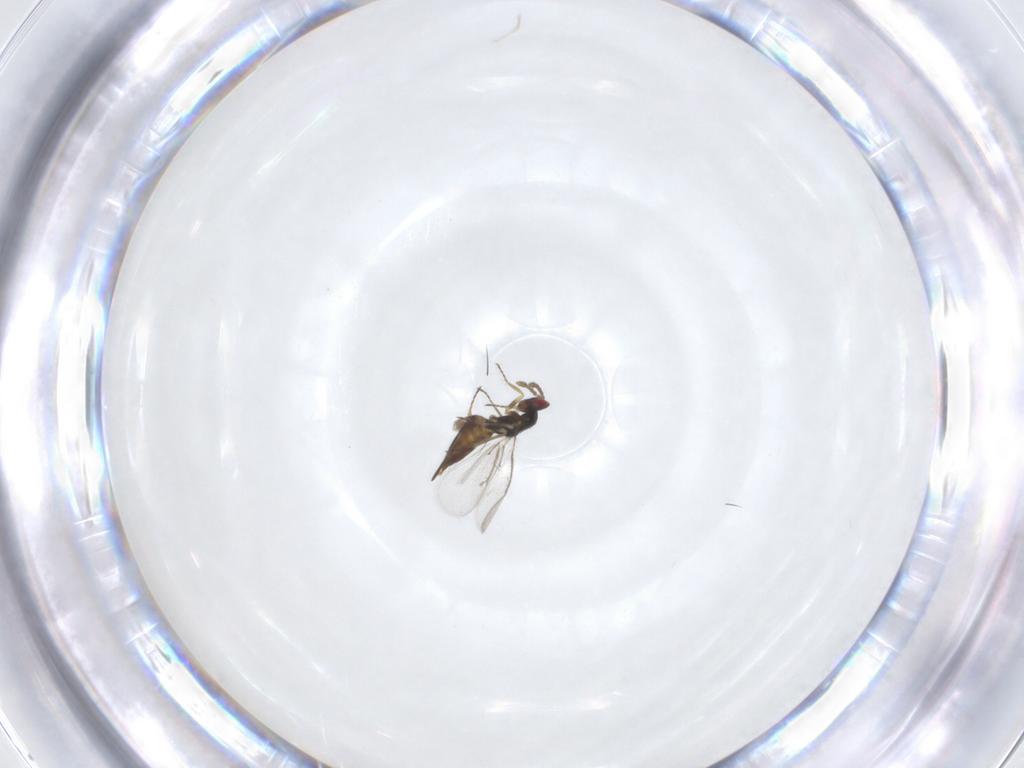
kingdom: Animalia
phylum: Arthropoda
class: Insecta
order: Hymenoptera
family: Eulophidae
